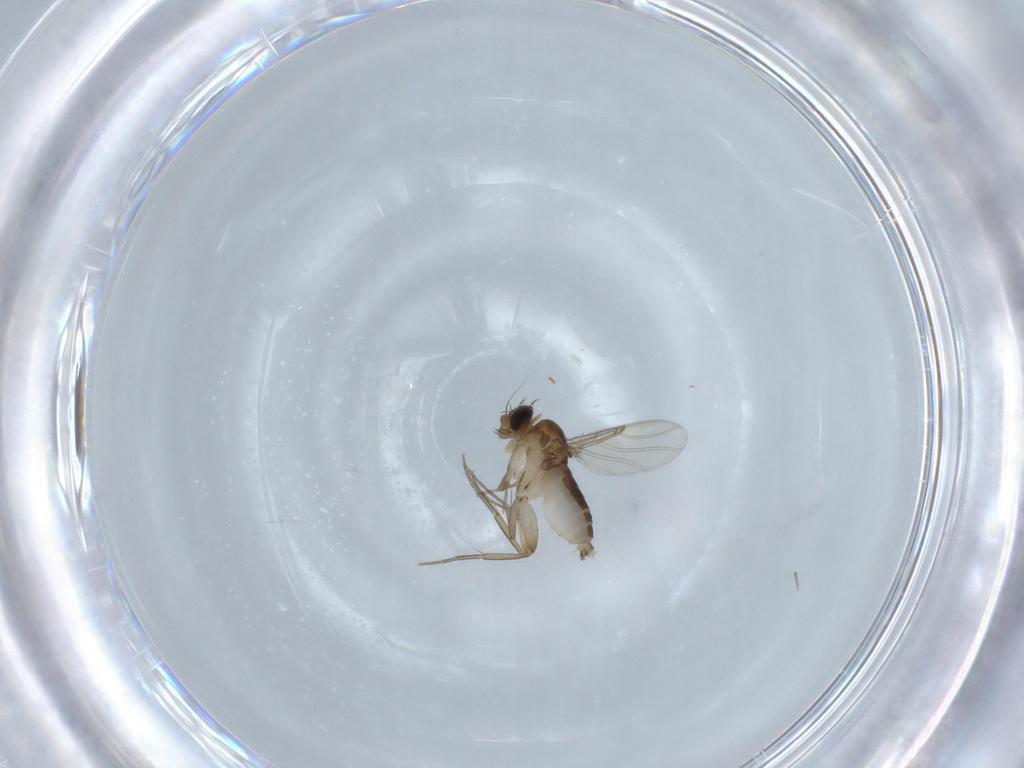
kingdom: Animalia
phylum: Arthropoda
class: Insecta
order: Diptera
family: Phoridae
